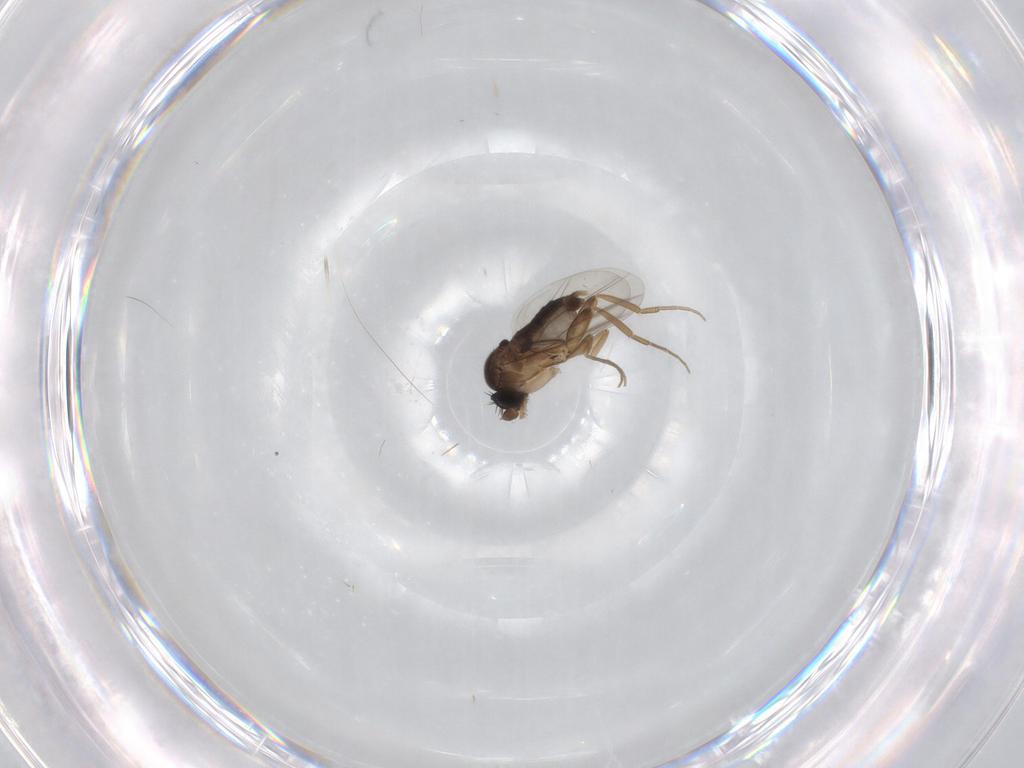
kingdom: Animalia
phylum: Arthropoda
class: Insecta
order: Diptera
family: Phoridae
